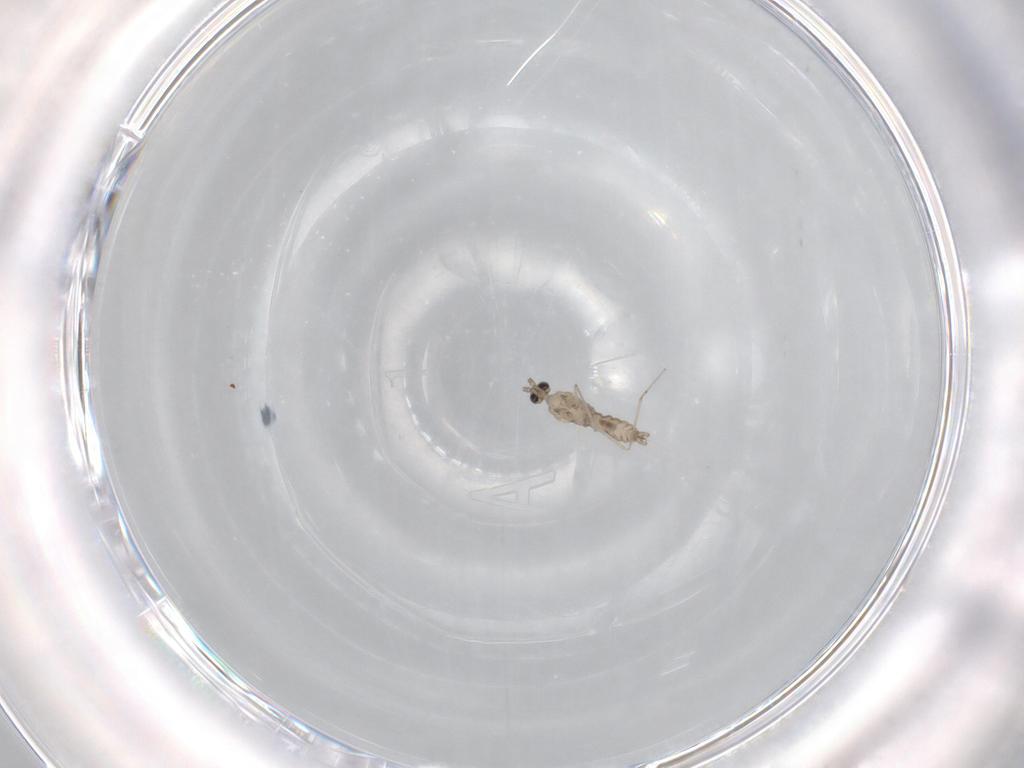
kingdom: Animalia
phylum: Arthropoda
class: Insecta
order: Diptera
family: Cecidomyiidae
